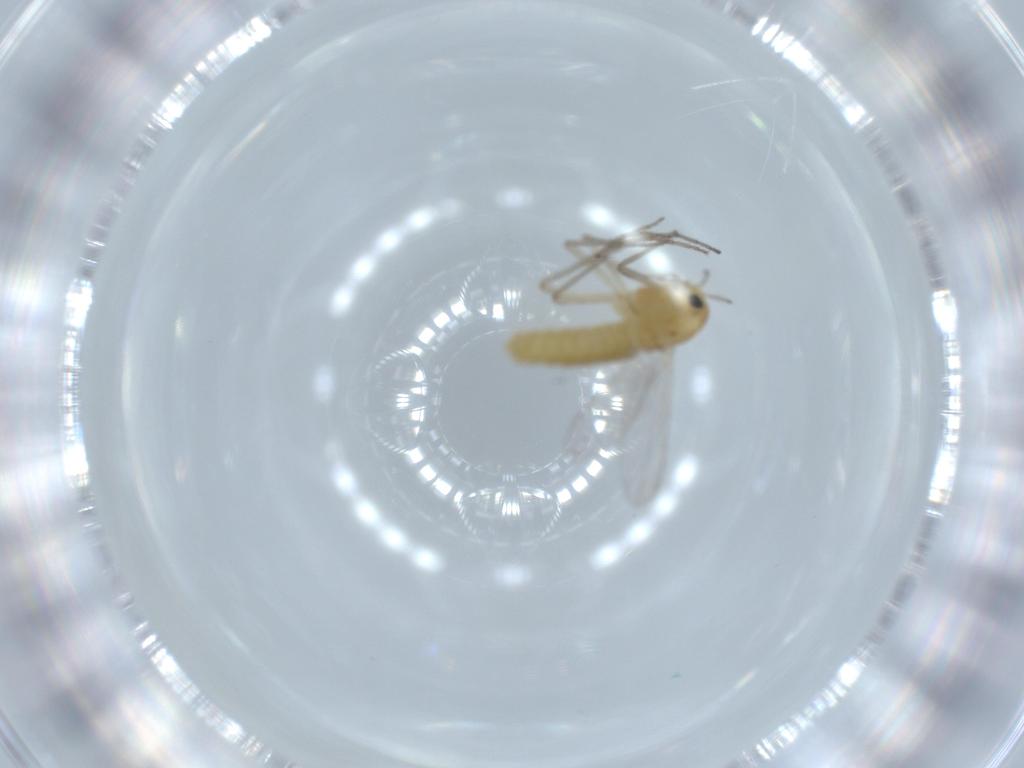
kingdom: Animalia
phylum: Arthropoda
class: Insecta
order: Diptera
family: Chironomidae
